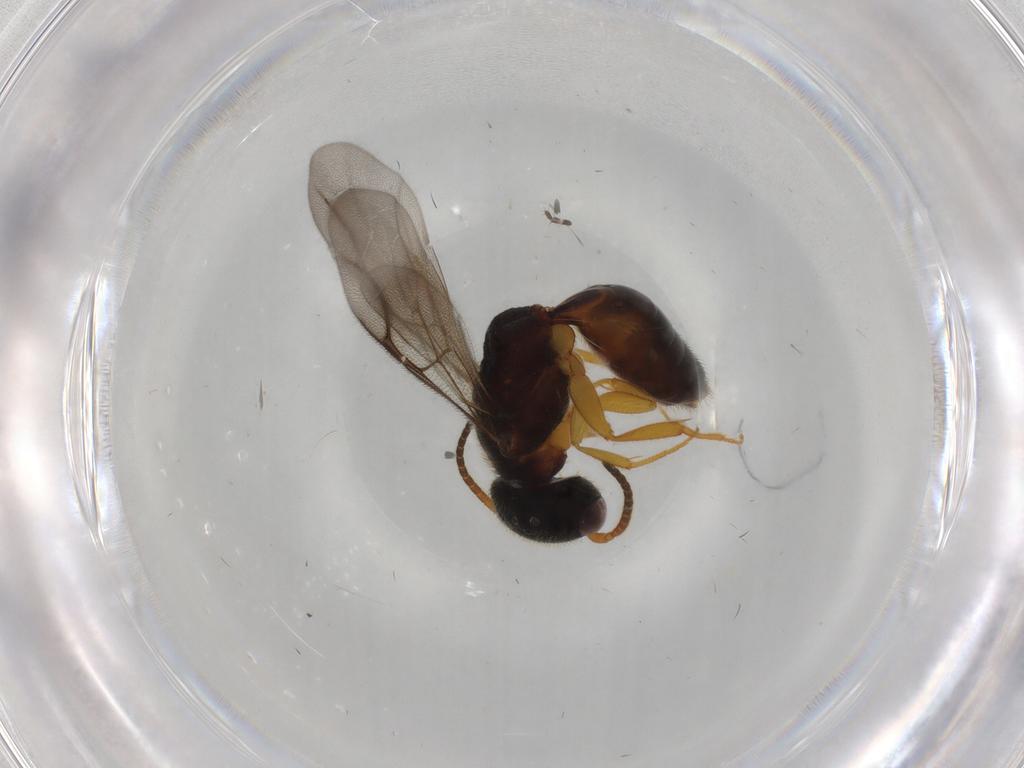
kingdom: Animalia
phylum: Arthropoda
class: Insecta
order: Hymenoptera
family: Bethylidae
